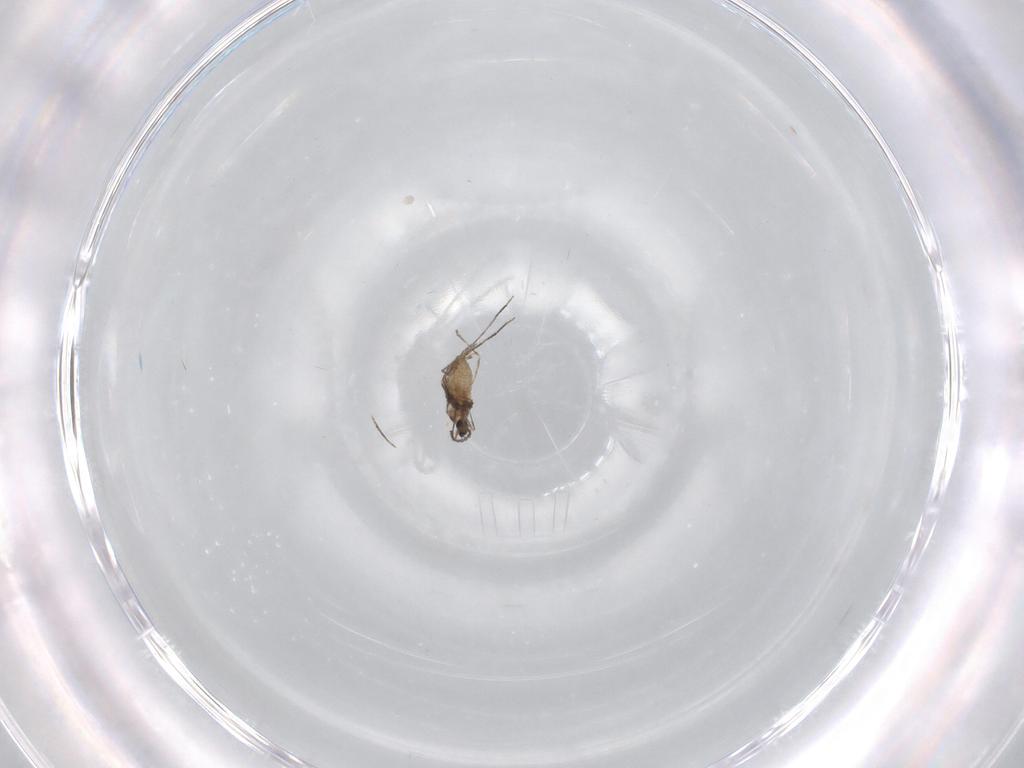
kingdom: Animalia
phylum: Arthropoda
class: Insecta
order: Diptera
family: Cecidomyiidae
